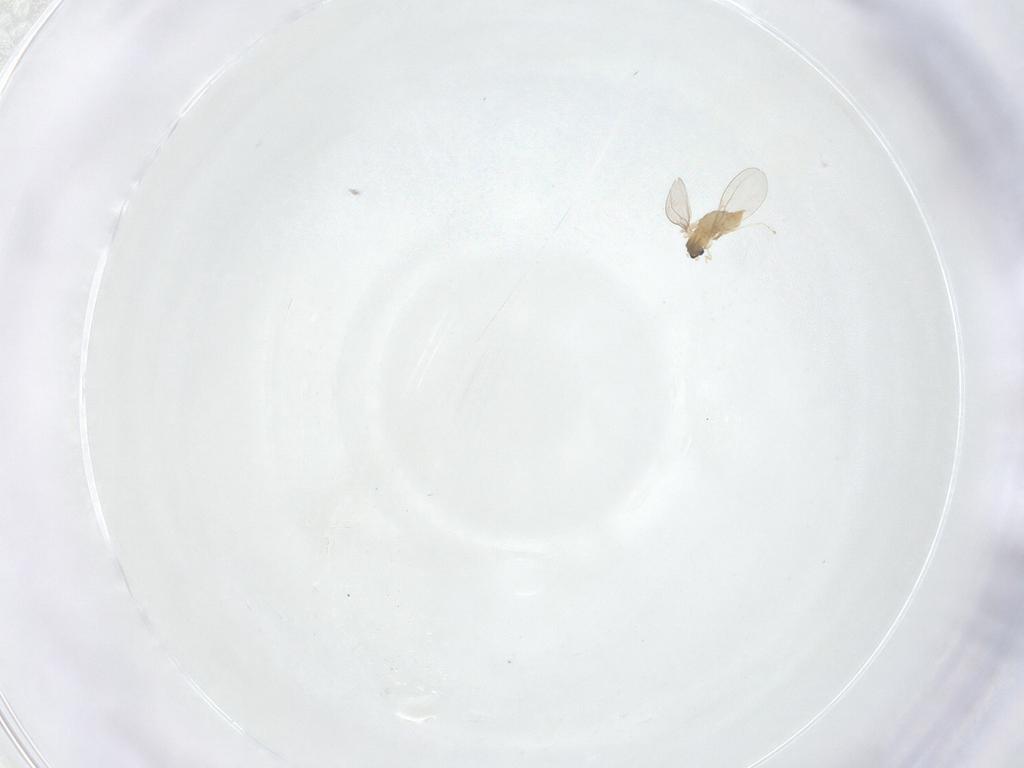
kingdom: Animalia
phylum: Arthropoda
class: Insecta
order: Diptera
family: Cecidomyiidae
